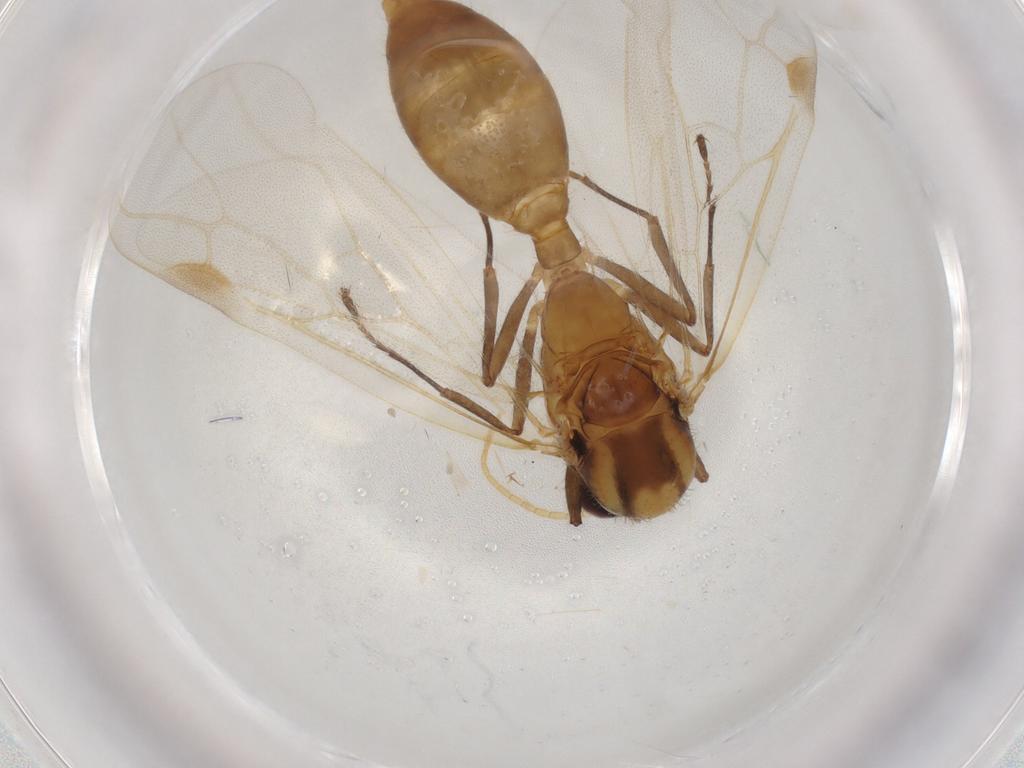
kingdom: Animalia
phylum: Arthropoda
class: Insecta
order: Hymenoptera
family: Formicidae
